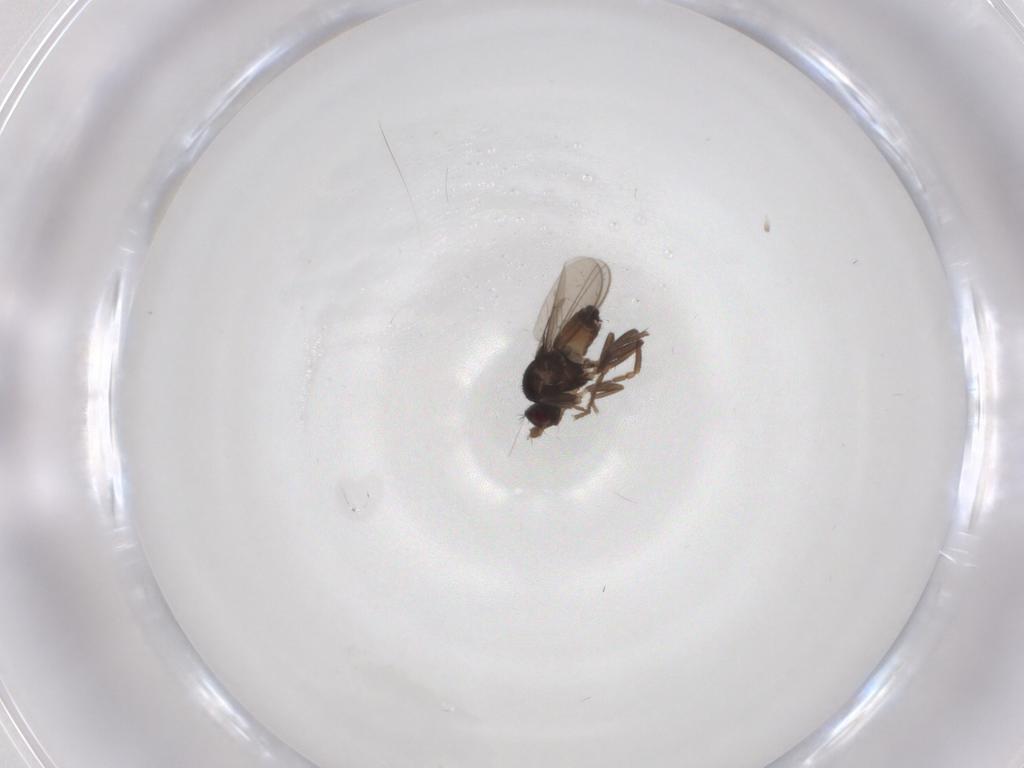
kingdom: Animalia
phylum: Arthropoda
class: Insecta
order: Diptera
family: Sphaeroceridae
